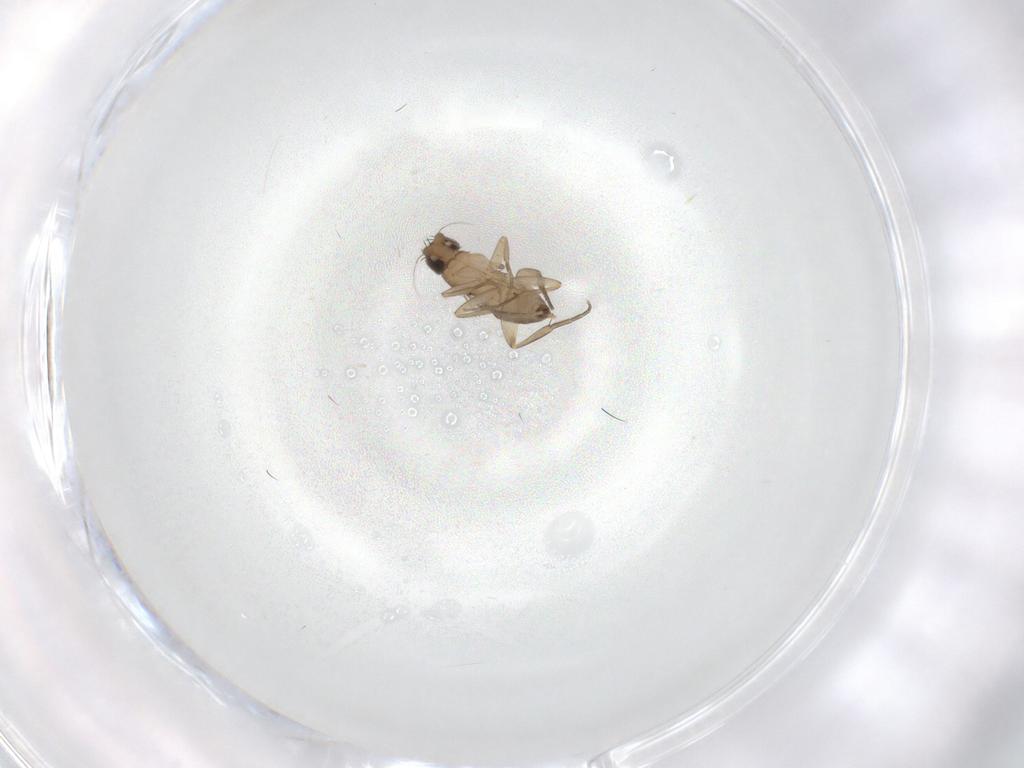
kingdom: Animalia
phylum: Arthropoda
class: Insecta
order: Diptera
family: Phoridae
